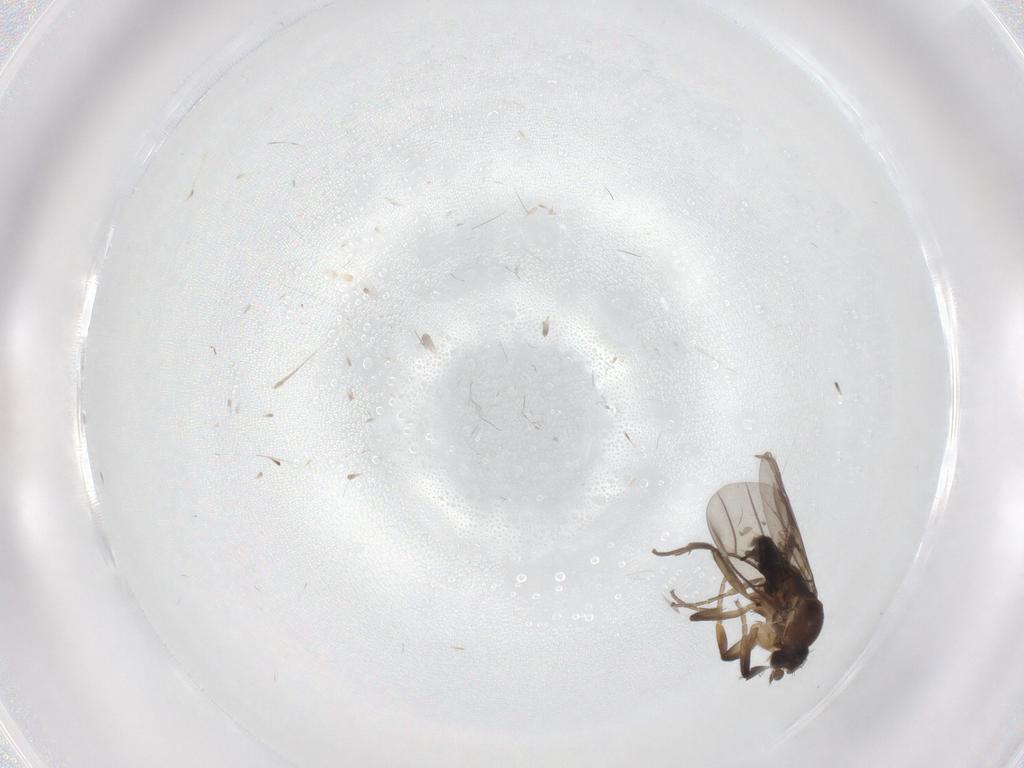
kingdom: Animalia
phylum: Arthropoda
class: Insecta
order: Diptera
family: Phoridae
